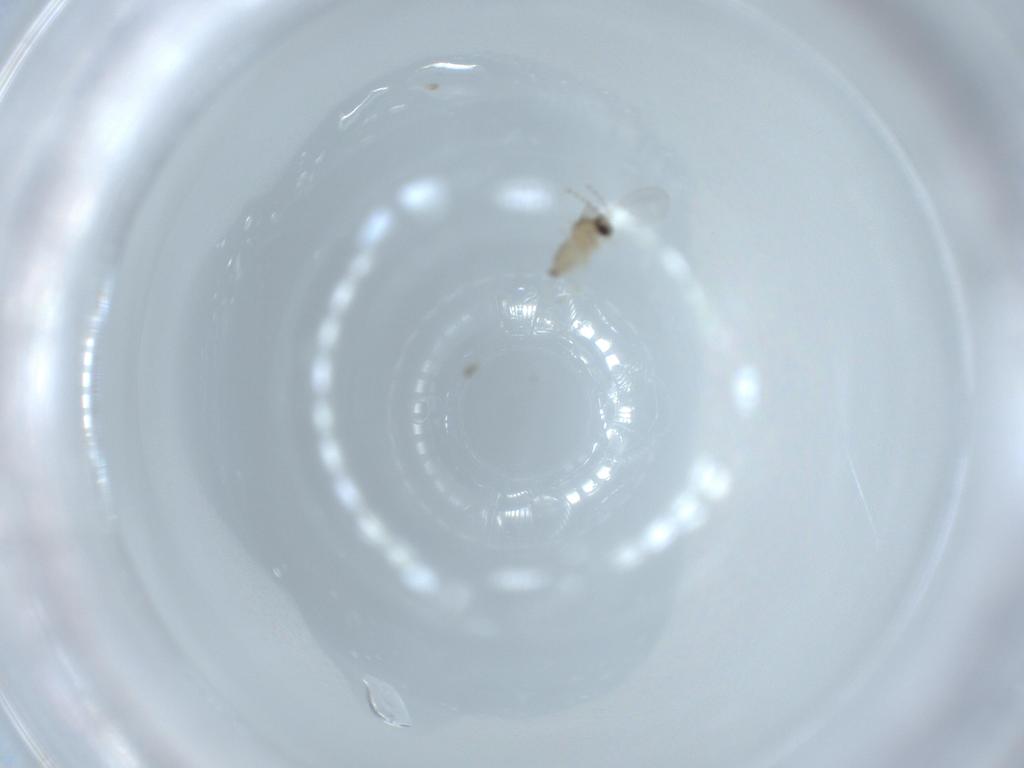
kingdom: Animalia
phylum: Arthropoda
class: Insecta
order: Diptera
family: Cecidomyiidae
